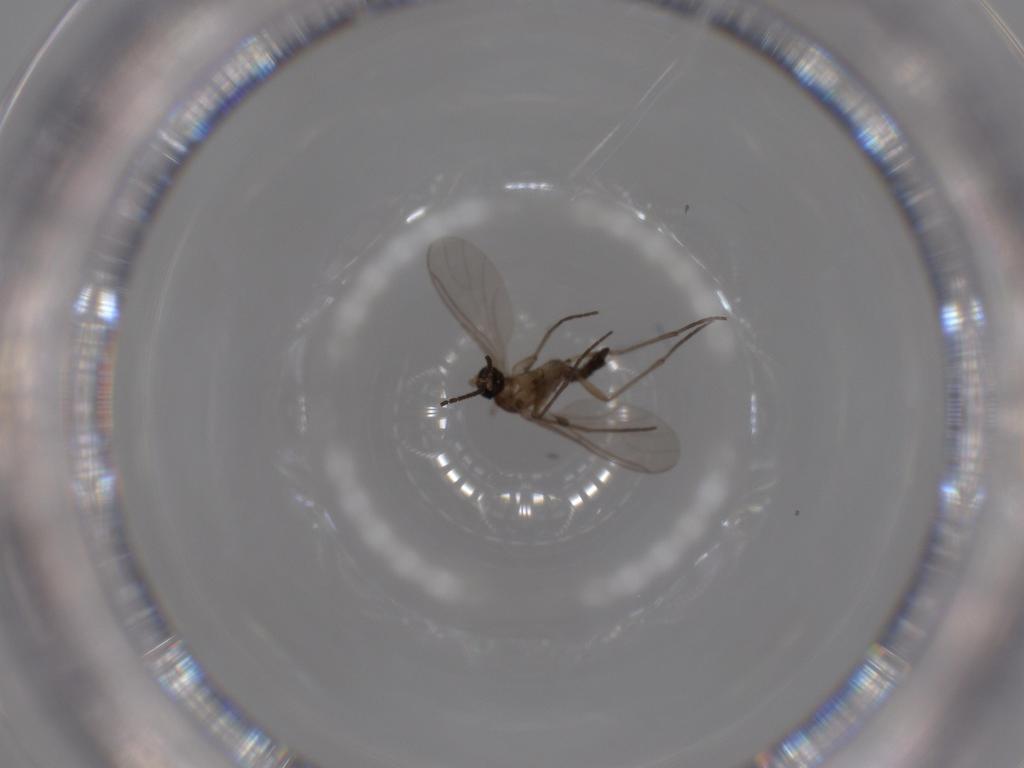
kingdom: Animalia
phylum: Arthropoda
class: Insecta
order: Diptera
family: Sciaridae
